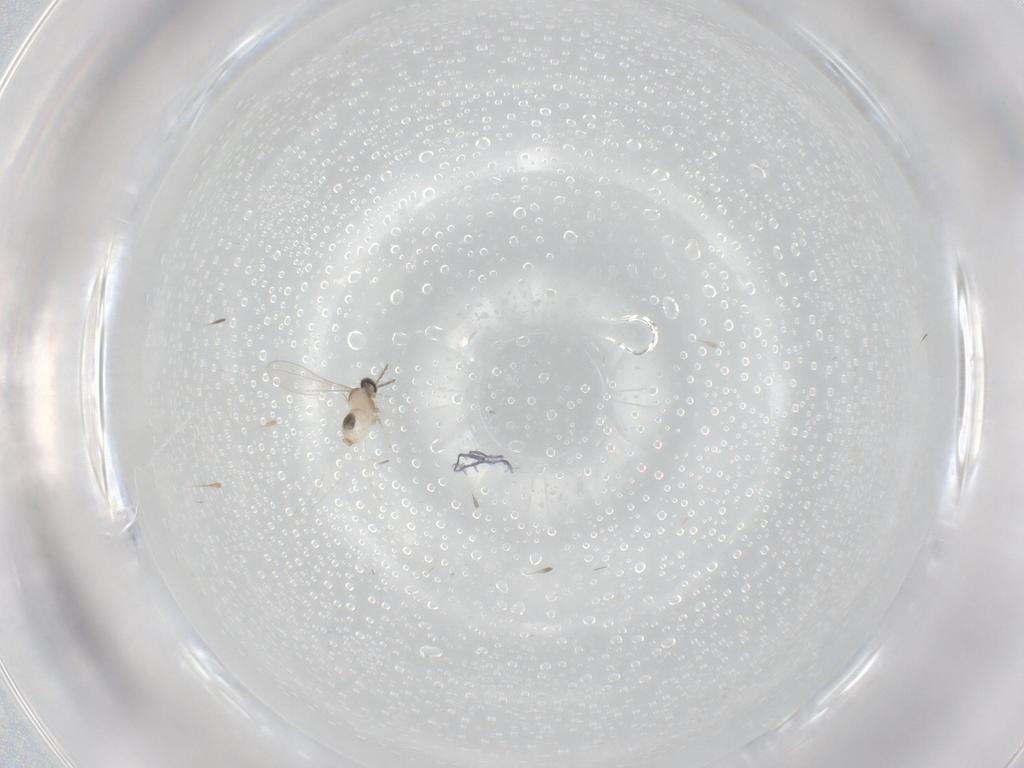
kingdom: Animalia
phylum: Arthropoda
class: Insecta
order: Diptera
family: Cecidomyiidae
